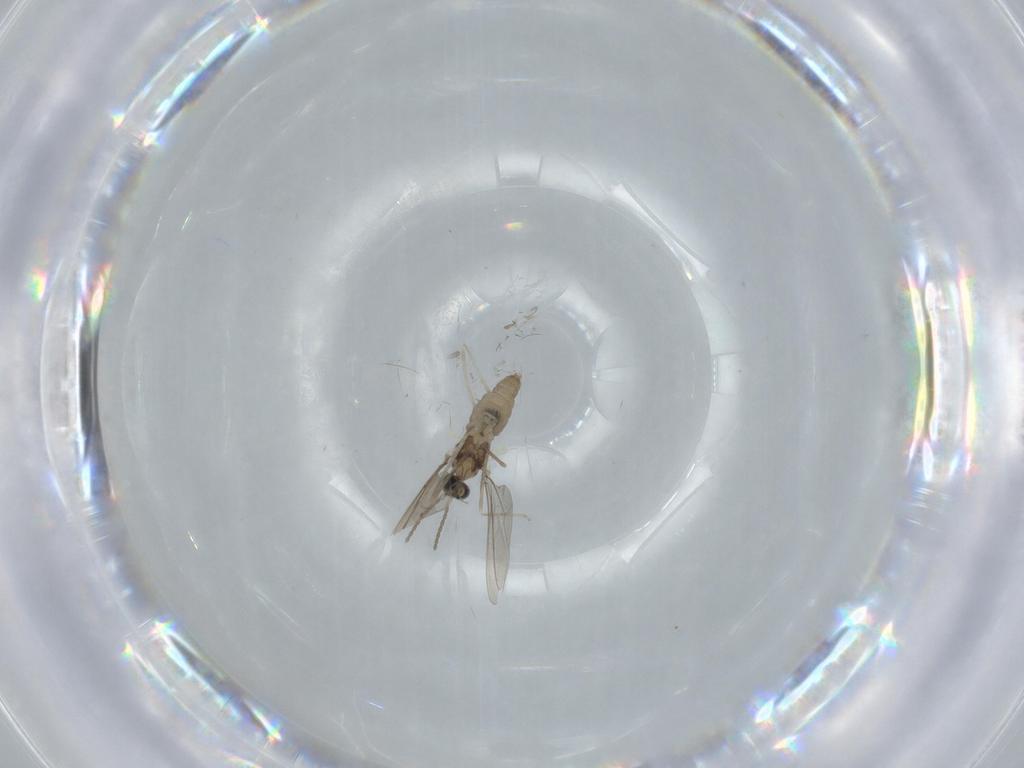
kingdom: Animalia
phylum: Arthropoda
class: Insecta
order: Diptera
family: Cecidomyiidae
